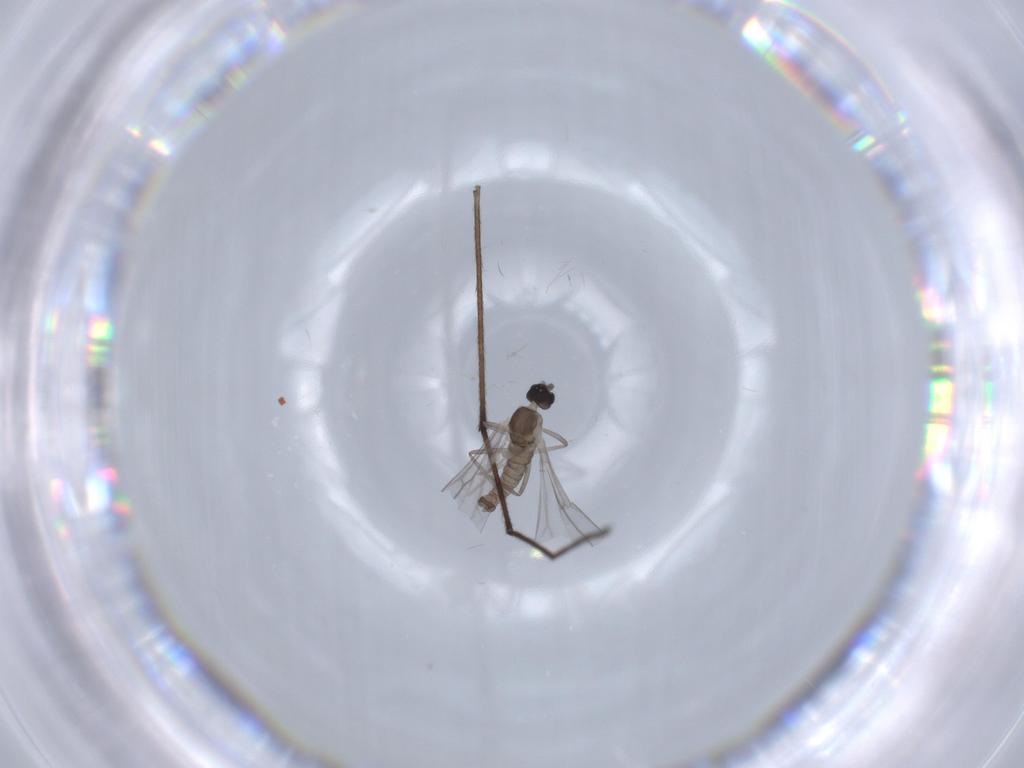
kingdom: Animalia
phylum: Arthropoda
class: Insecta
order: Diptera
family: Cecidomyiidae
